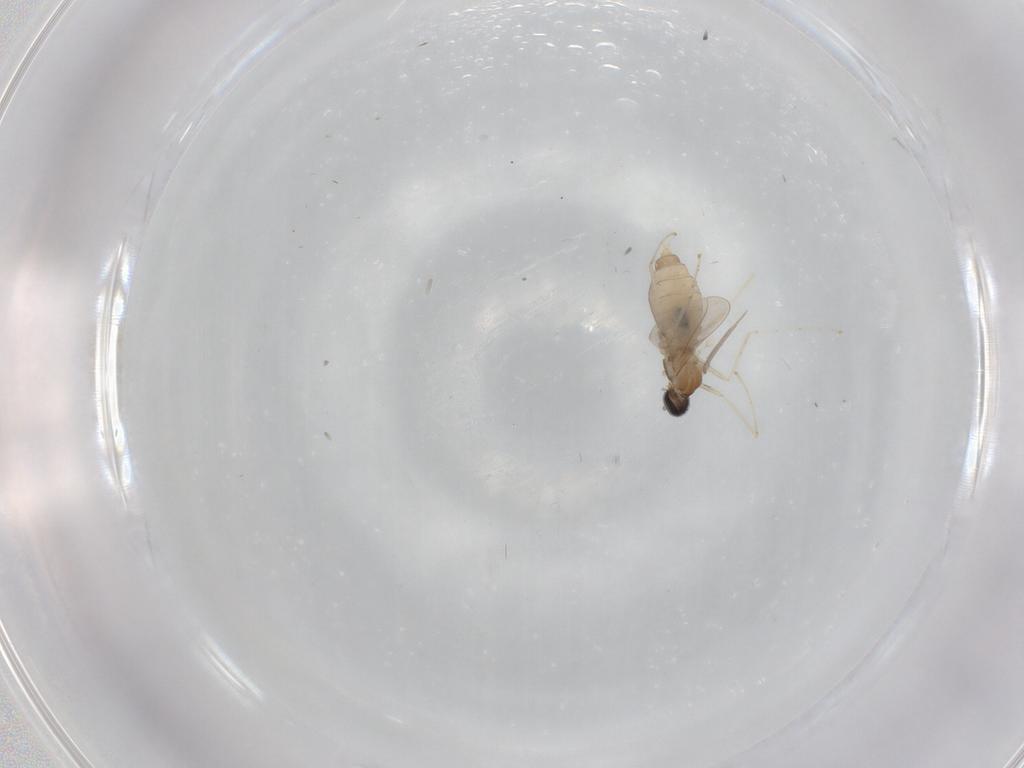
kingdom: Animalia
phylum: Arthropoda
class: Insecta
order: Diptera
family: Cecidomyiidae
